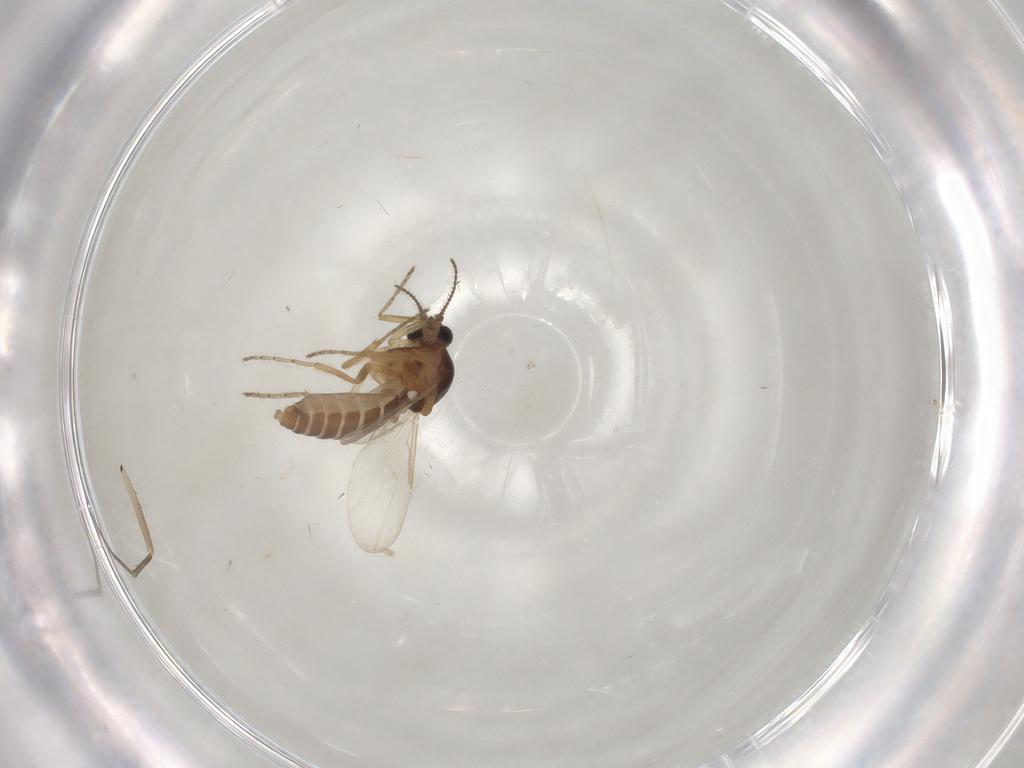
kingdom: Animalia
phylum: Arthropoda
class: Insecta
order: Diptera
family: Ceratopogonidae
